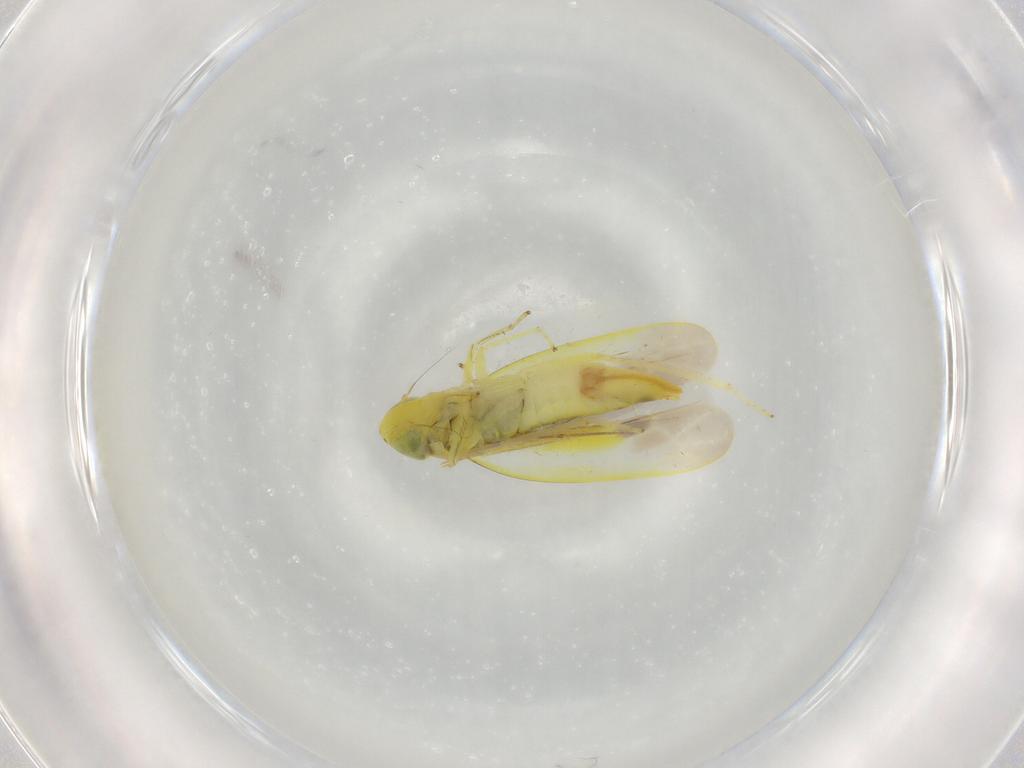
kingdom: Animalia
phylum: Arthropoda
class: Insecta
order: Hemiptera
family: Cicadellidae
